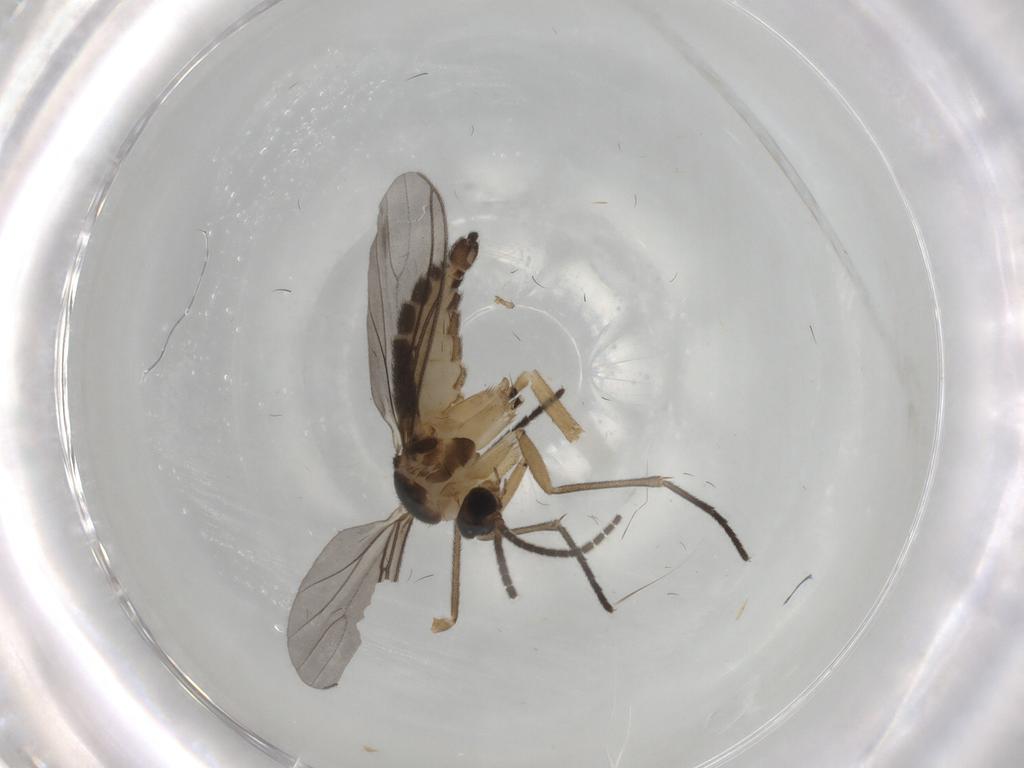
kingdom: Animalia
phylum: Arthropoda
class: Insecta
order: Diptera
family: Sciaridae
